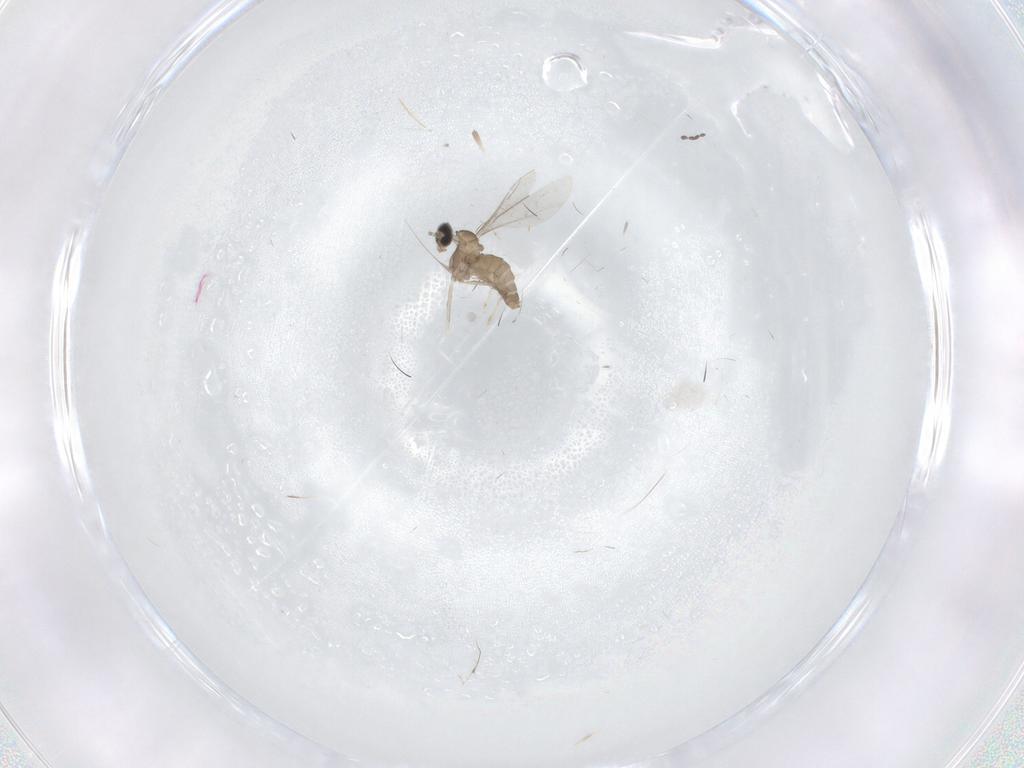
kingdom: Animalia
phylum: Arthropoda
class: Insecta
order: Diptera
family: Cecidomyiidae
